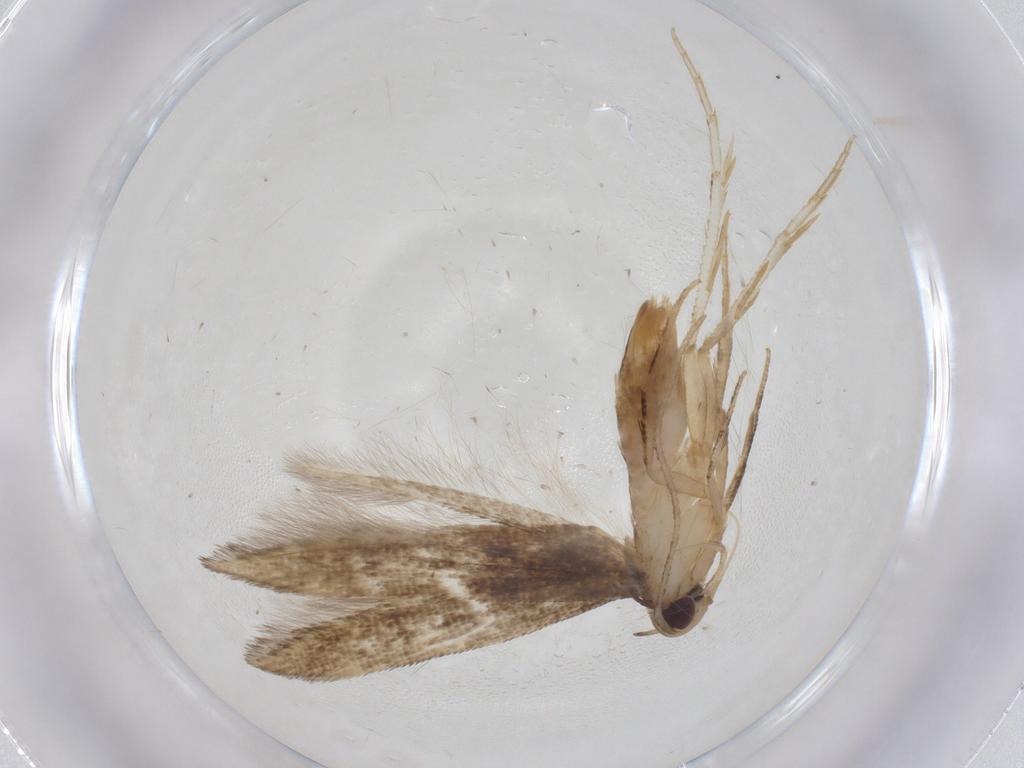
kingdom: Animalia
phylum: Arthropoda
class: Insecta
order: Lepidoptera
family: Cosmopterigidae
